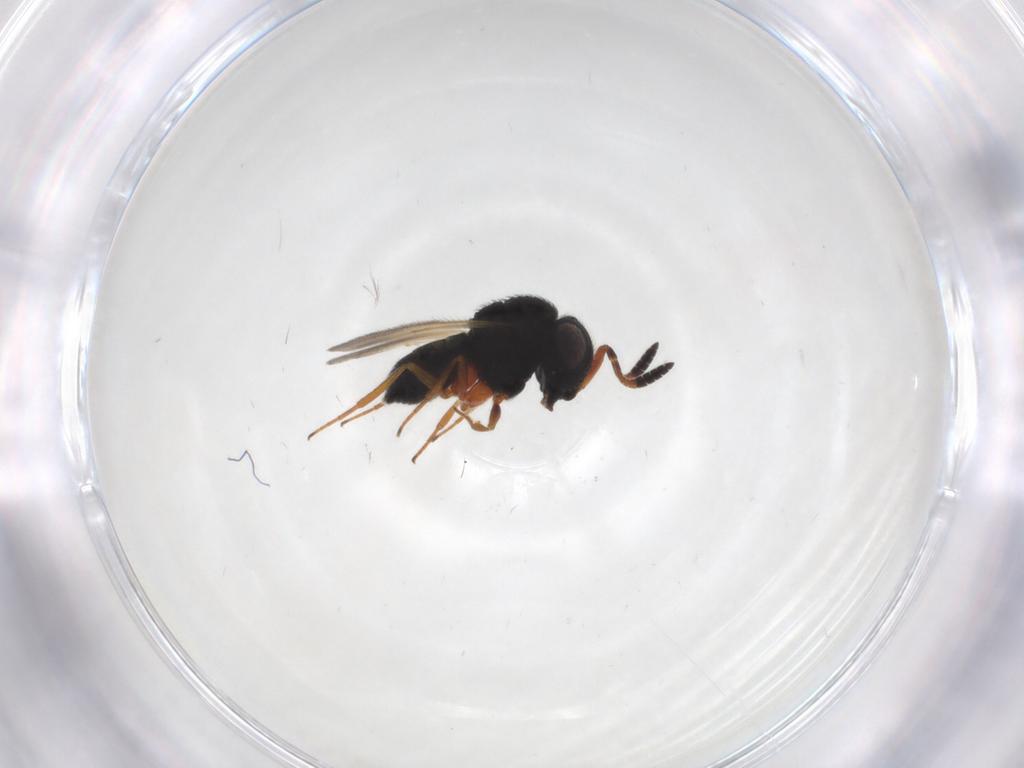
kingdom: Animalia
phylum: Arthropoda
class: Insecta
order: Hymenoptera
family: Scelionidae
